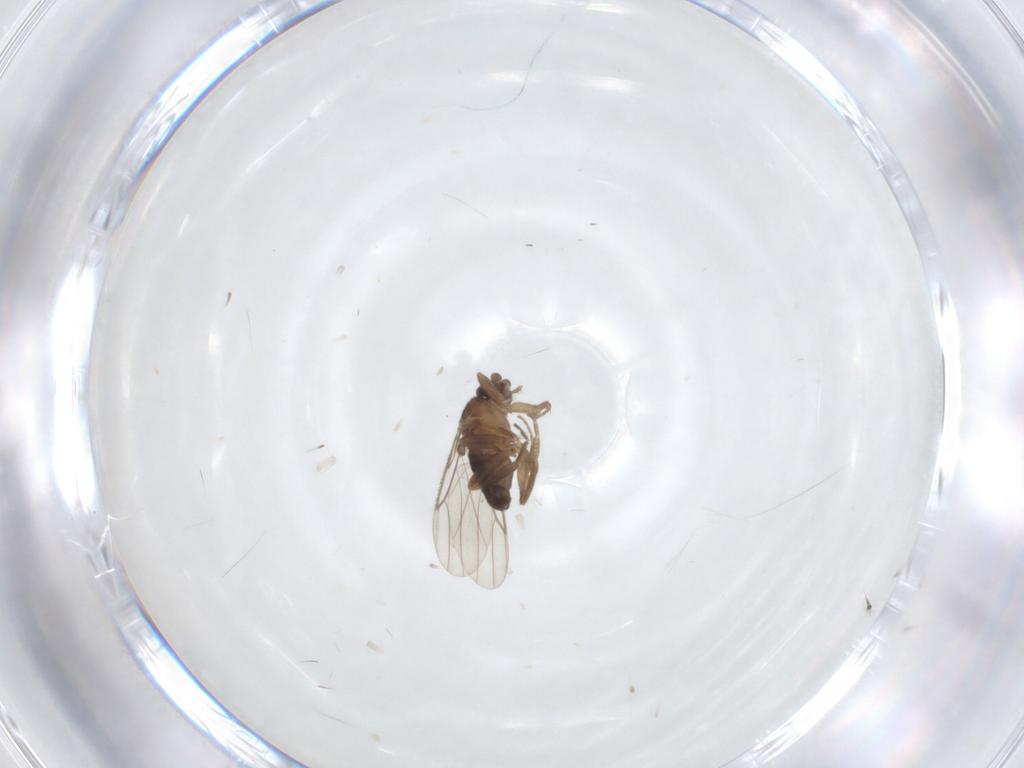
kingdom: Animalia
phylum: Arthropoda
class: Insecta
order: Diptera
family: Phoridae
